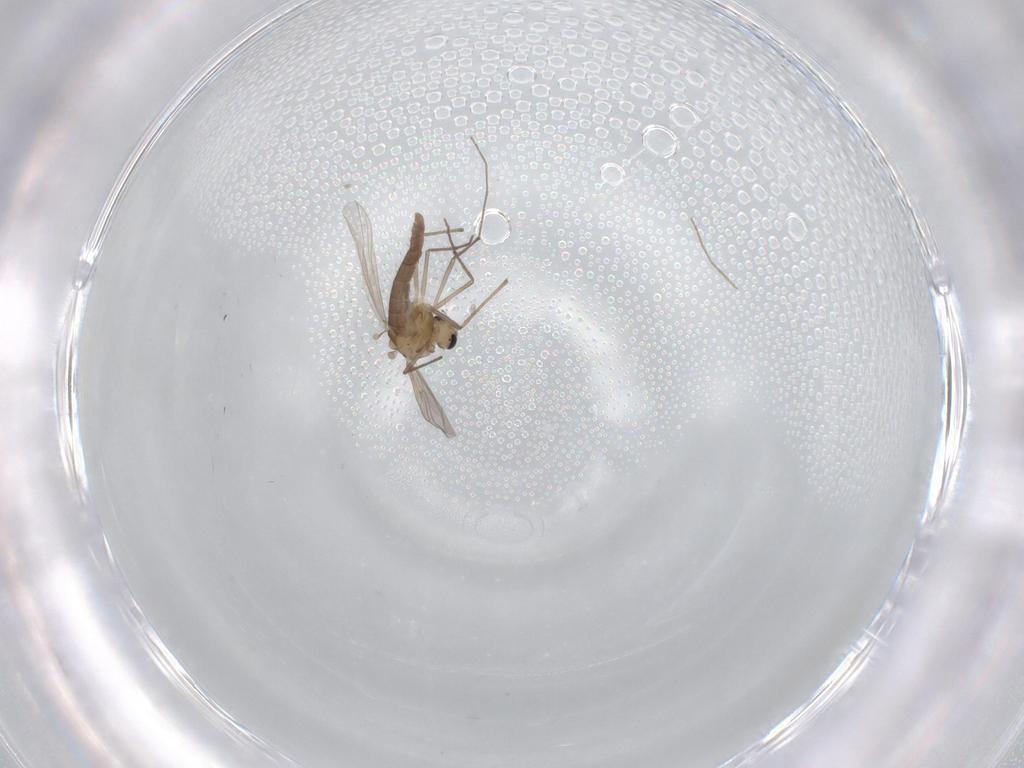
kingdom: Animalia
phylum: Arthropoda
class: Insecta
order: Diptera
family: Chironomidae
